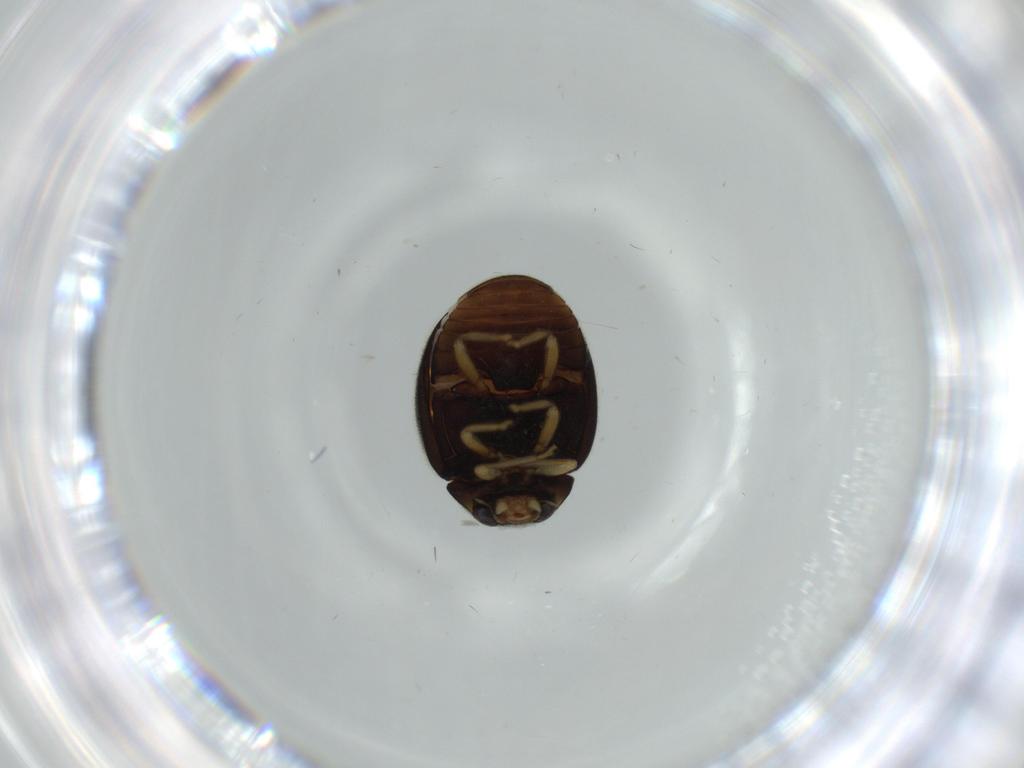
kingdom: Animalia
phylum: Arthropoda
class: Insecta
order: Coleoptera
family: Coccinellidae
